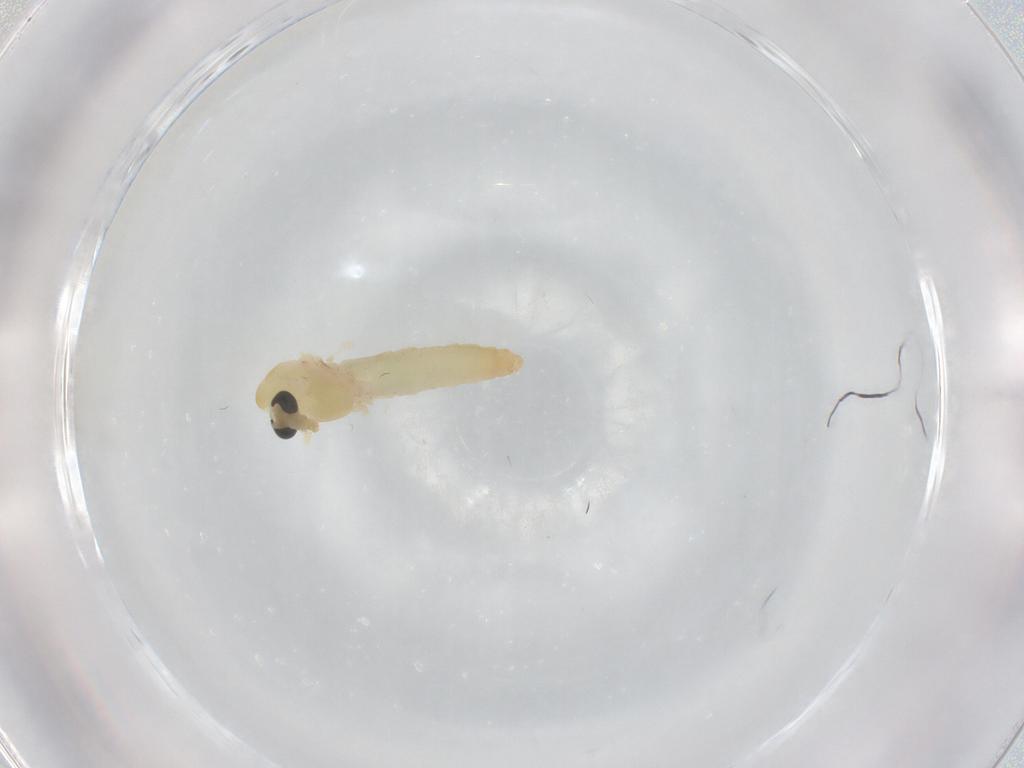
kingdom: Animalia
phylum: Arthropoda
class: Insecta
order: Diptera
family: Chironomidae
